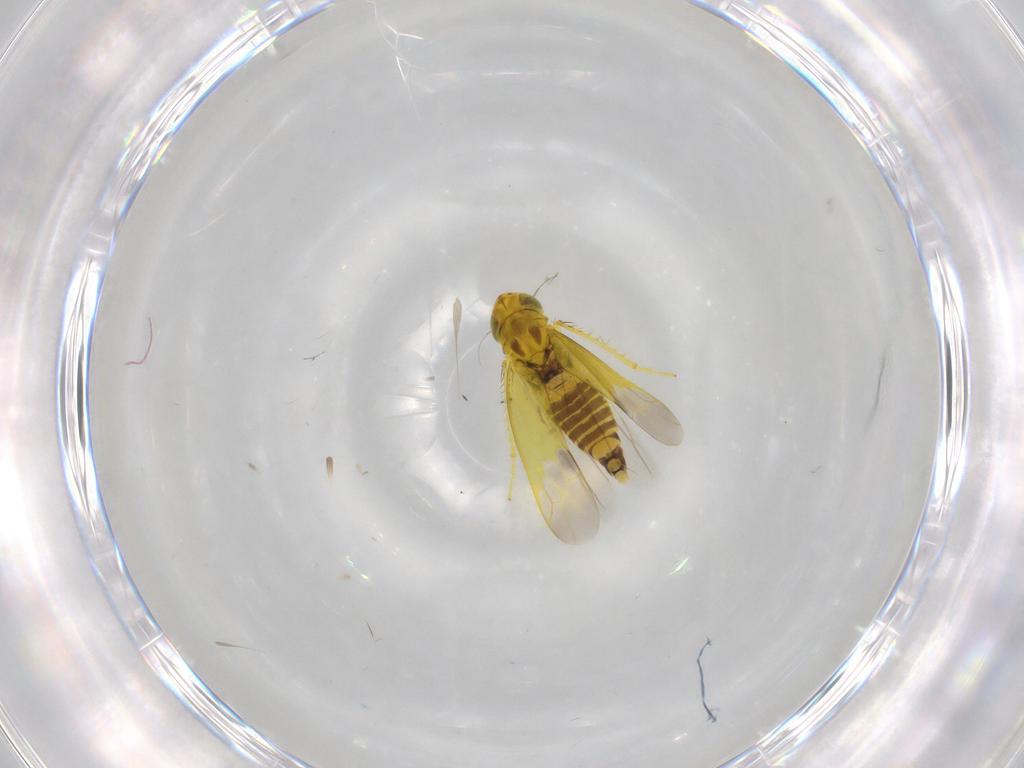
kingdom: Animalia
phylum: Arthropoda
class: Insecta
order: Hemiptera
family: Cicadellidae
